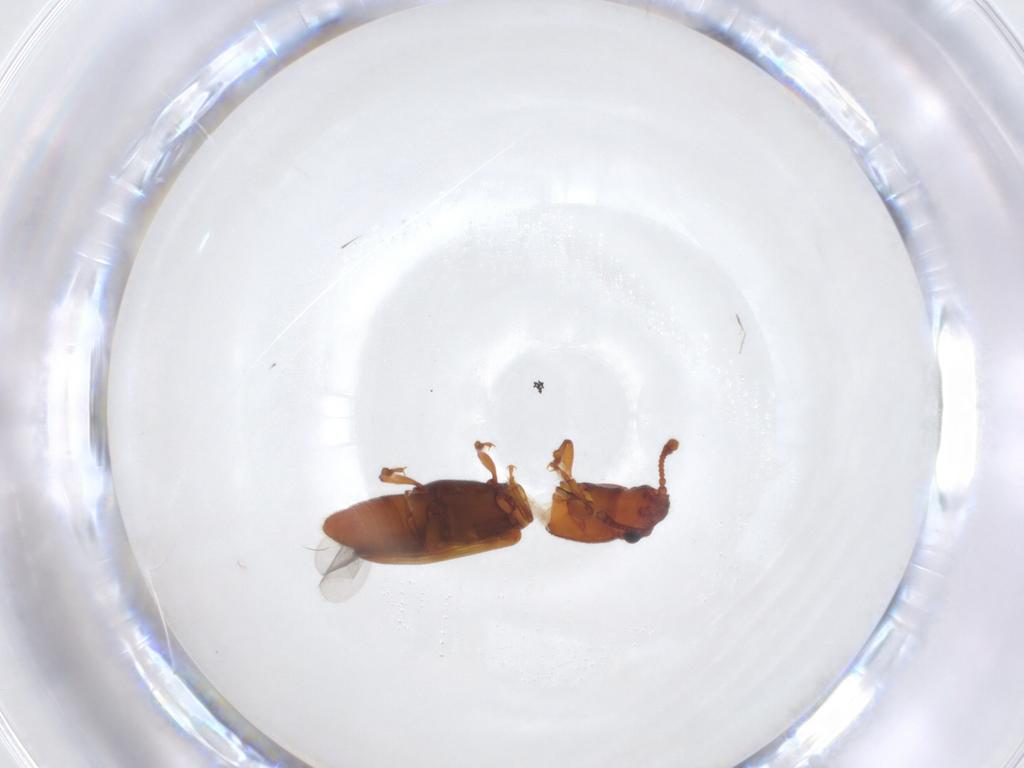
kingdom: Animalia
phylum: Arthropoda
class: Insecta
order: Coleoptera
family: Monotomidae
